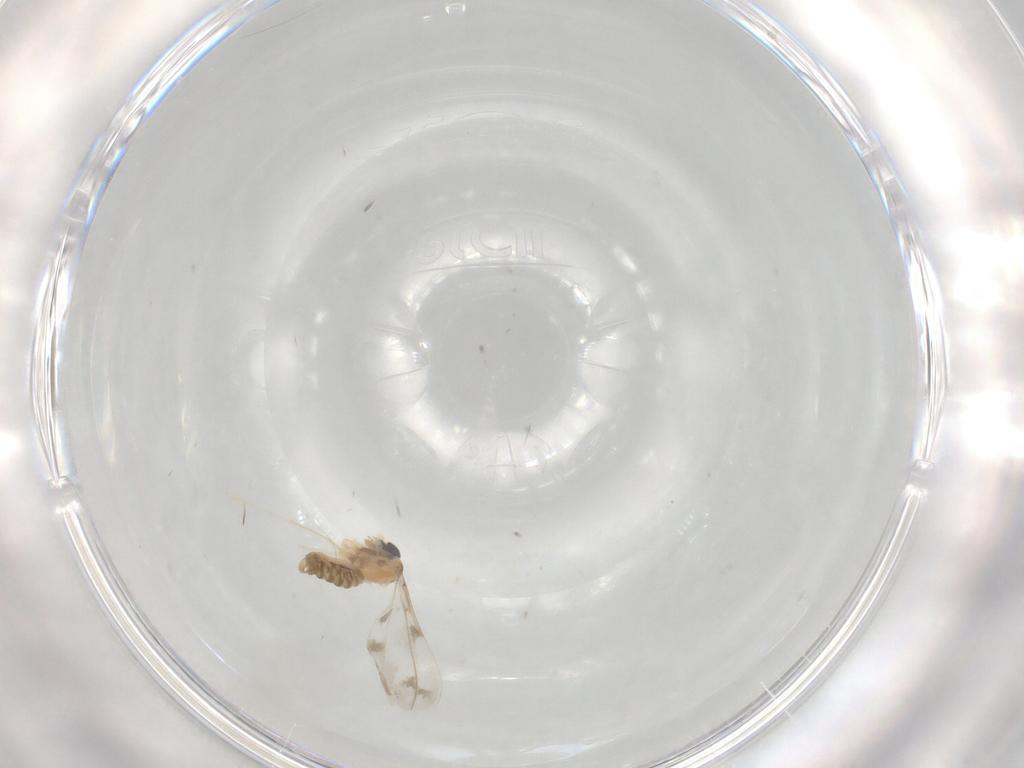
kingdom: Animalia
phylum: Arthropoda
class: Insecta
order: Diptera
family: Cecidomyiidae
